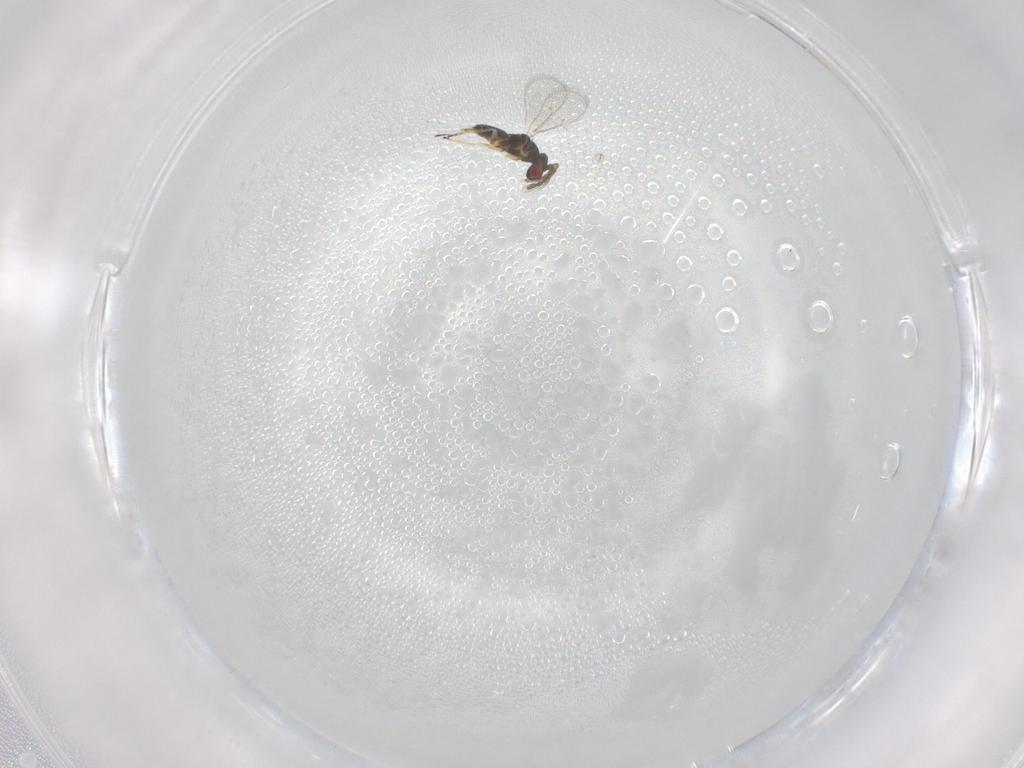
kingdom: Animalia
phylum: Arthropoda
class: Insecta
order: Hymenoptera
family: Eulophidae
